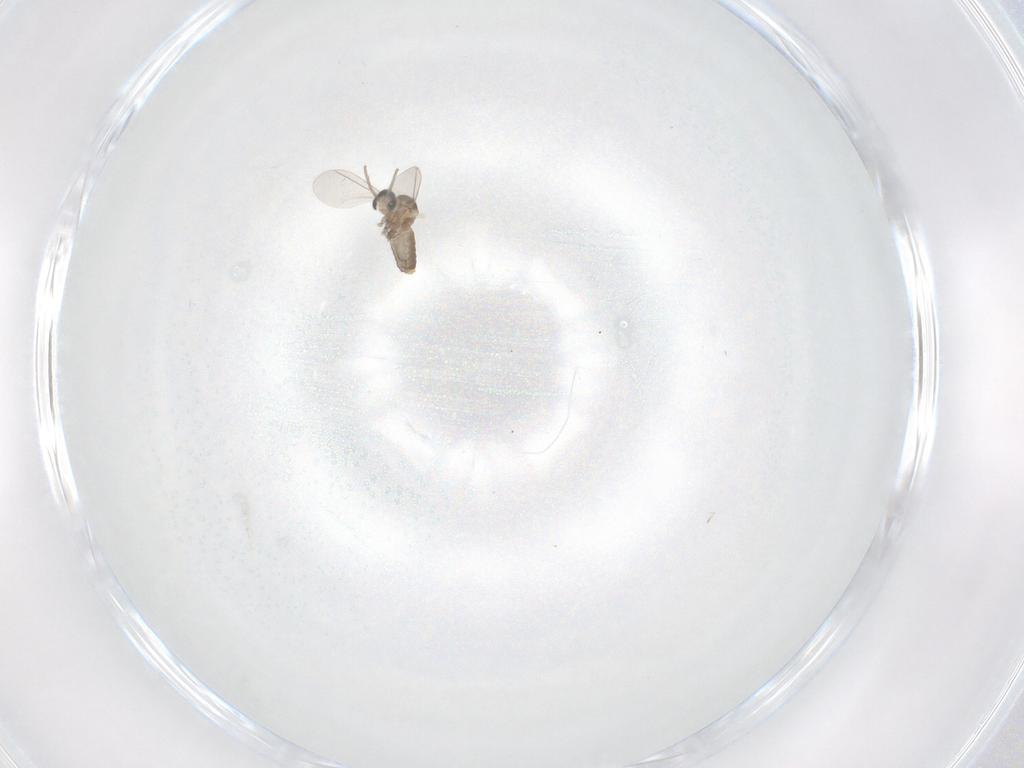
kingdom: Animalia
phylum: Arthropoda
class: Insecta
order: Diptera
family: Cecidomyiidae
